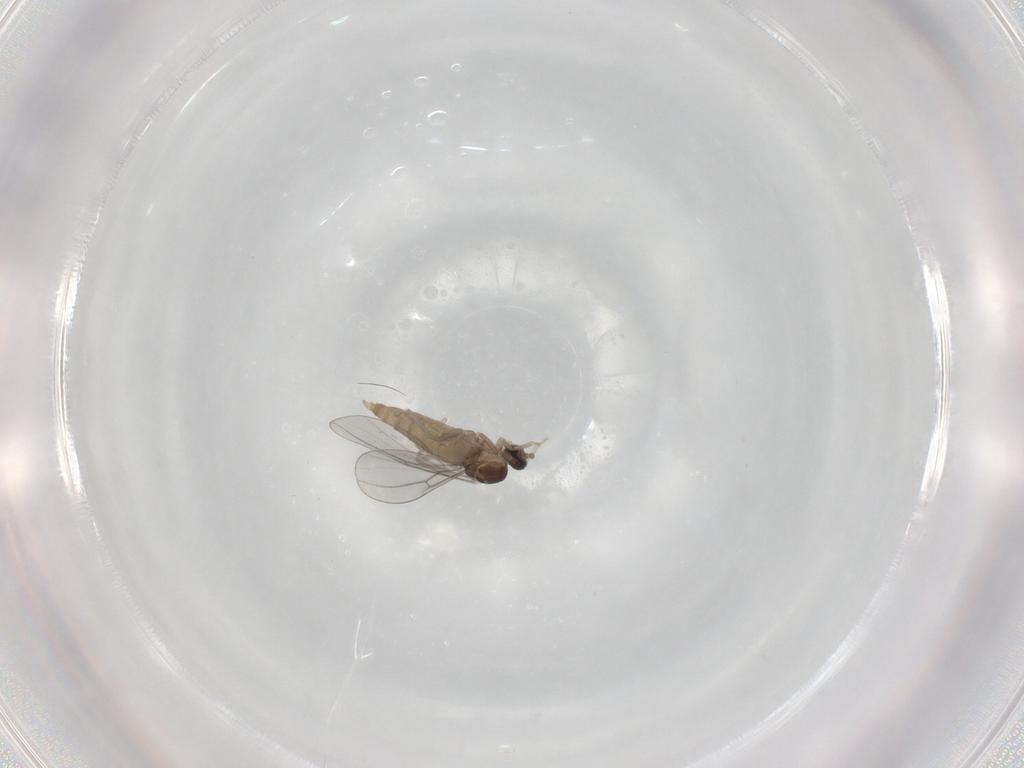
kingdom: Animalia
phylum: Arthropoda
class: Insecta
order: Diptera
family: Cecidomyiidae
